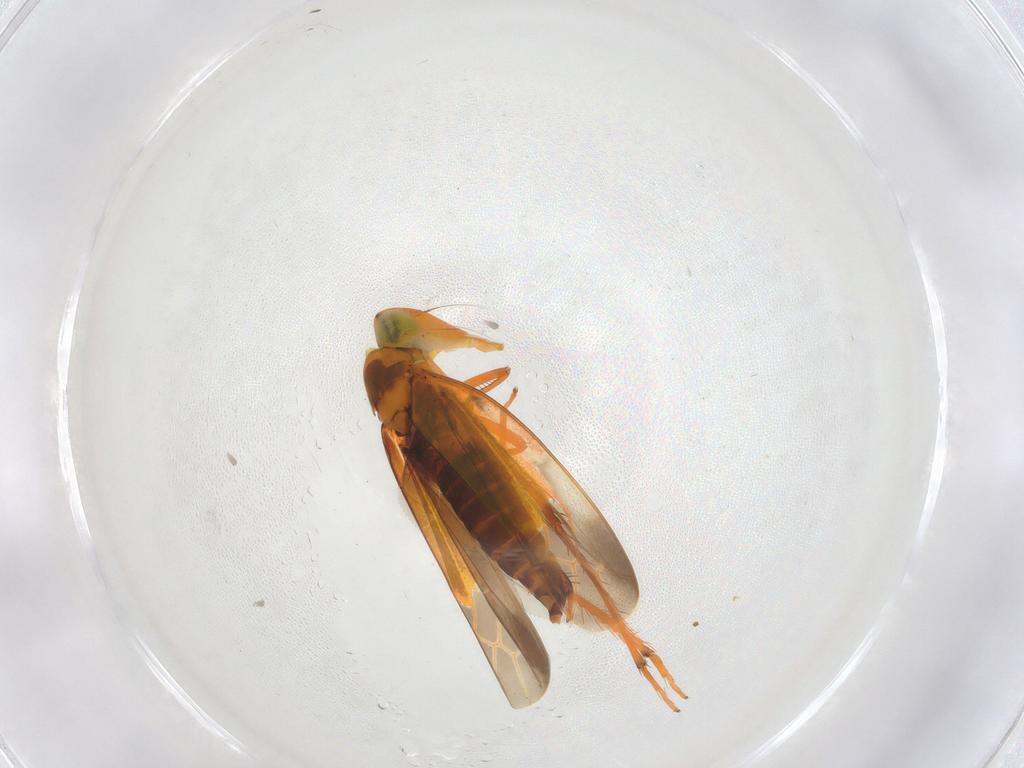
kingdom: Animalia
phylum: Arthropoda
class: Insecta
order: Hemiptera
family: Cicadellidae
